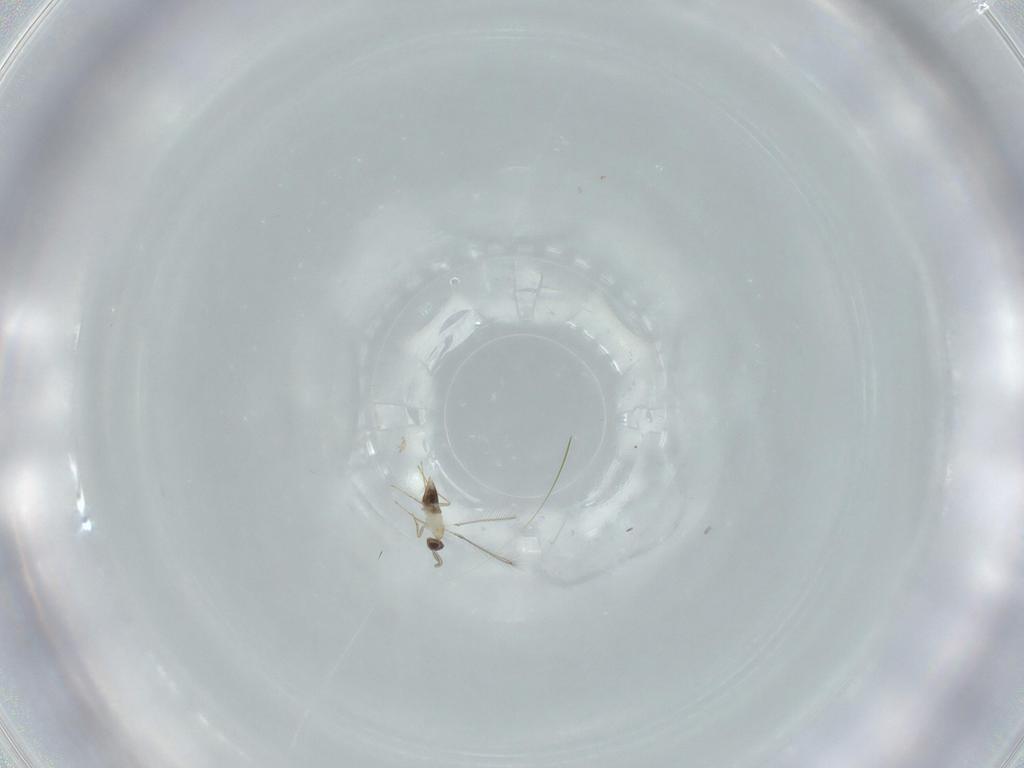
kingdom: Animalia
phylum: Arthropoda
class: Insecta
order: Hymenoptera
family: Mymaridae
